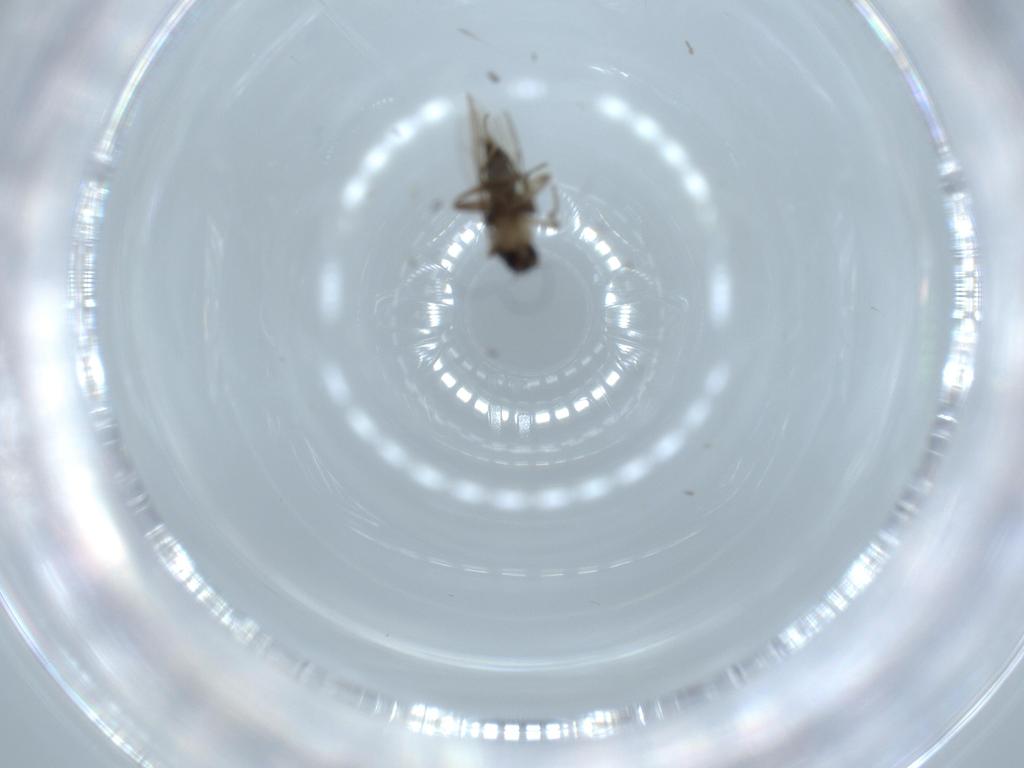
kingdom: Animalia
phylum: Arthropoda
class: Insecta
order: Diptera
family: Phoridae
